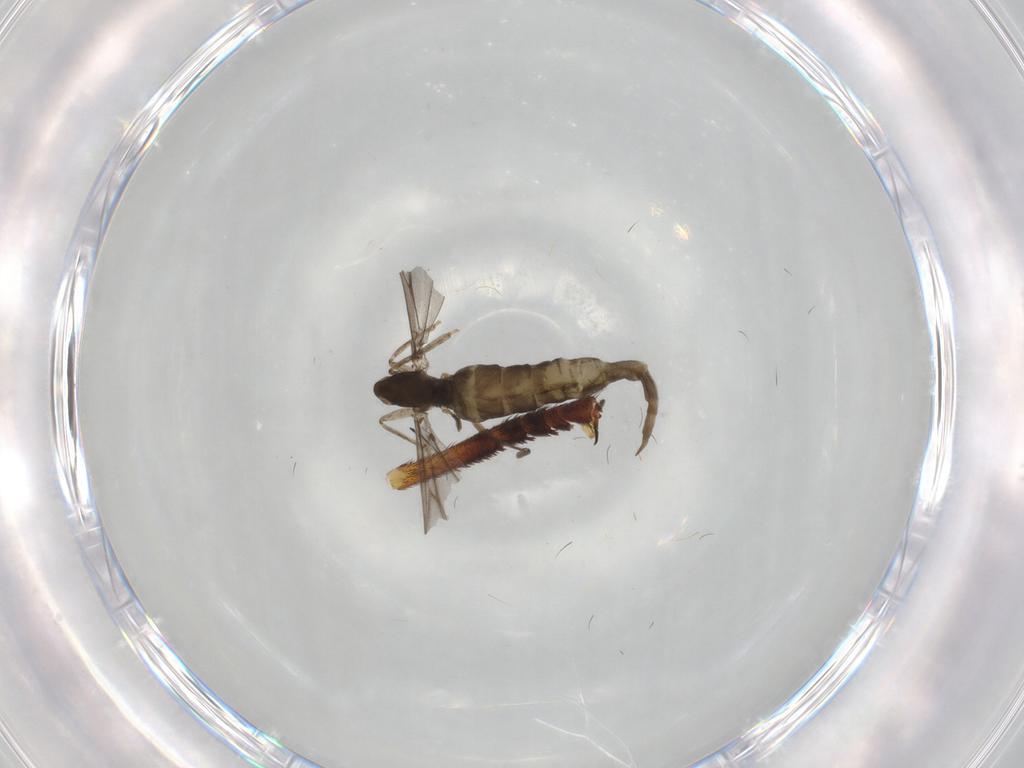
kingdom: Animalia
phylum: Arthropoda
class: Insecta
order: Diptera
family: Cecidomyiidae
